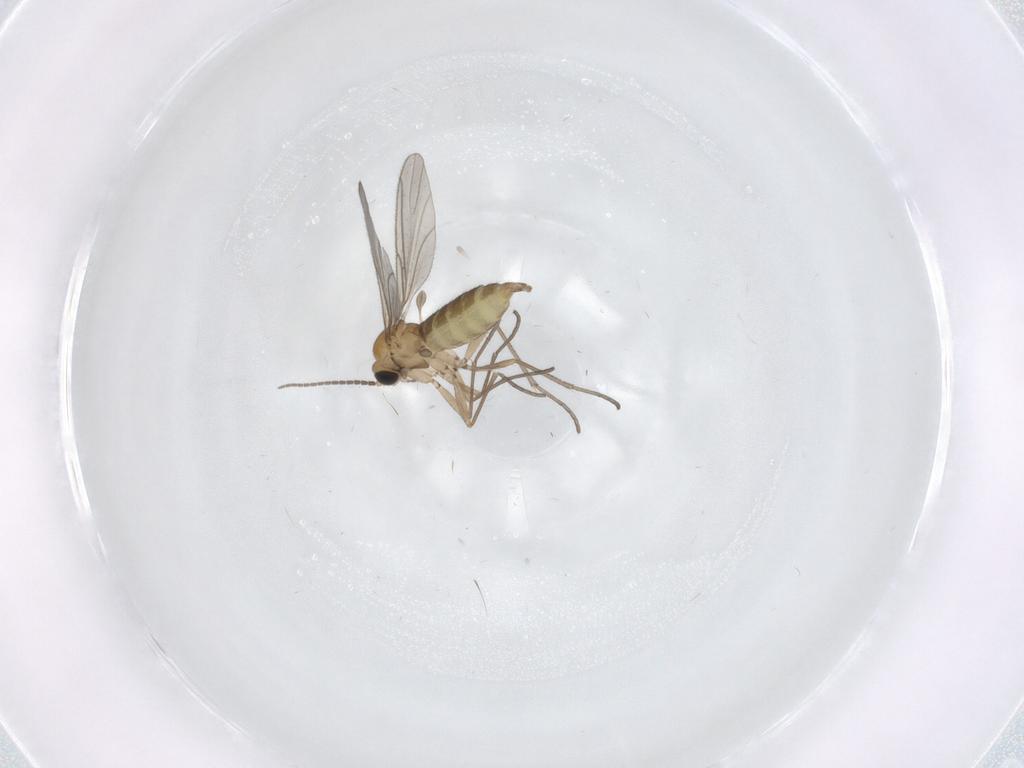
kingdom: Animalia
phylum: Arthropoda
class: Insecta
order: Diptera
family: Sciaridae
